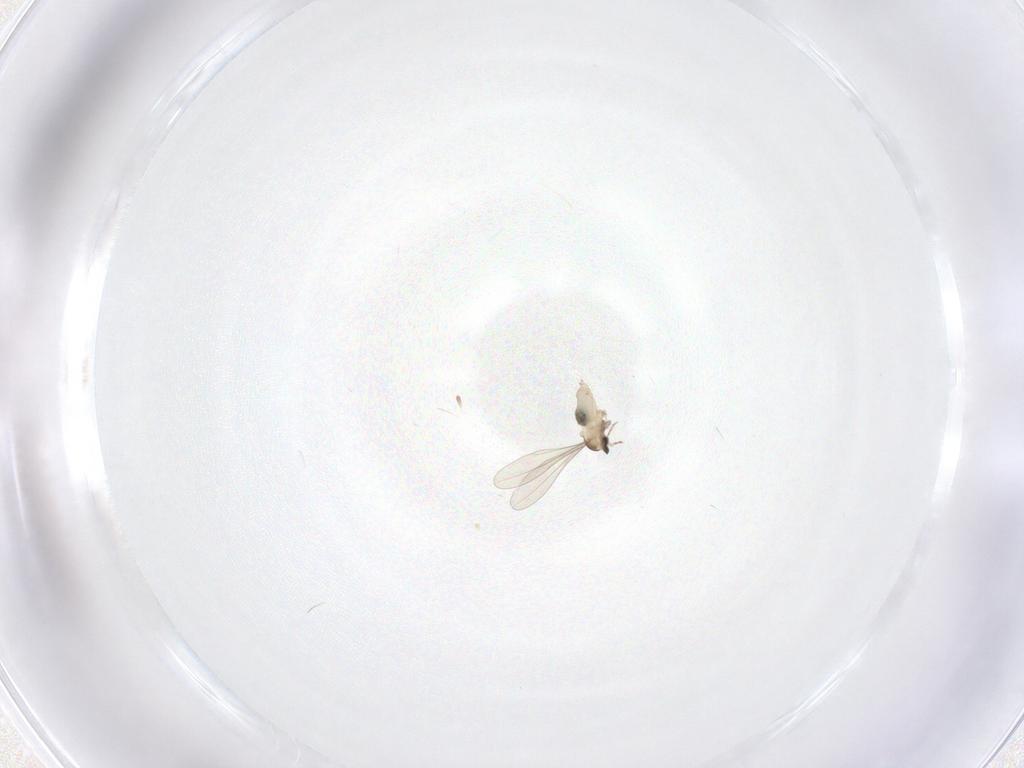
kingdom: Animalia
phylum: Arthropoda
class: Insecta
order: Diptera
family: Cecidomyiidae
